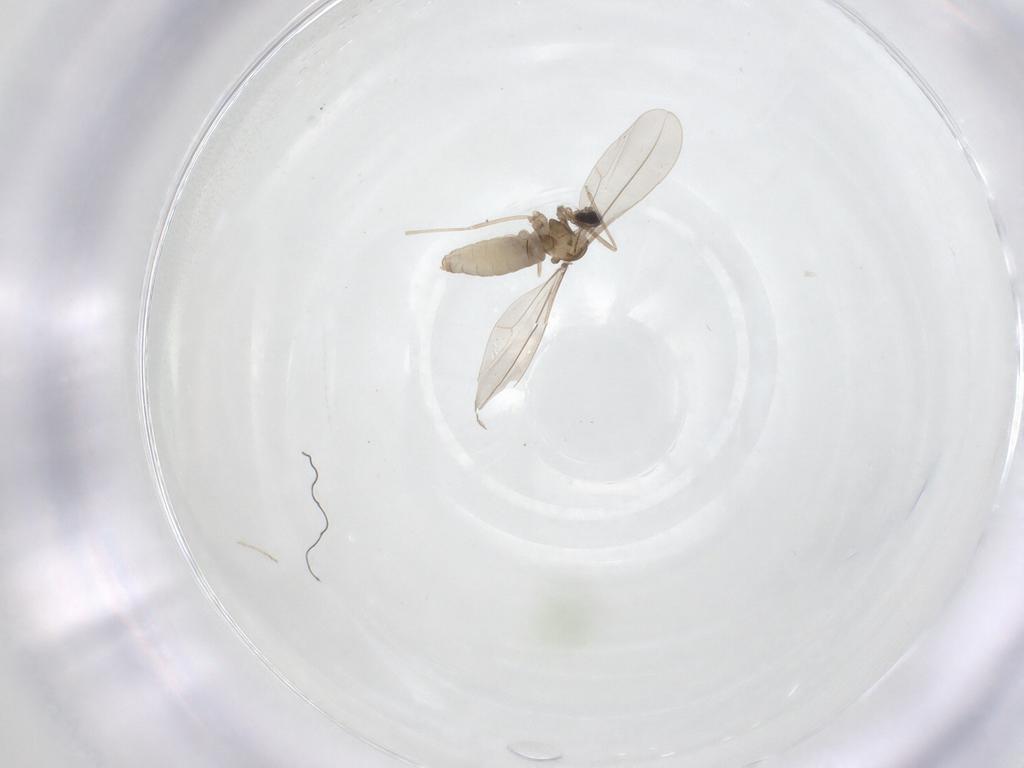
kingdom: Animalia
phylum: Arthropoda
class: Insecta
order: Diptera
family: Cecidomyiidae
